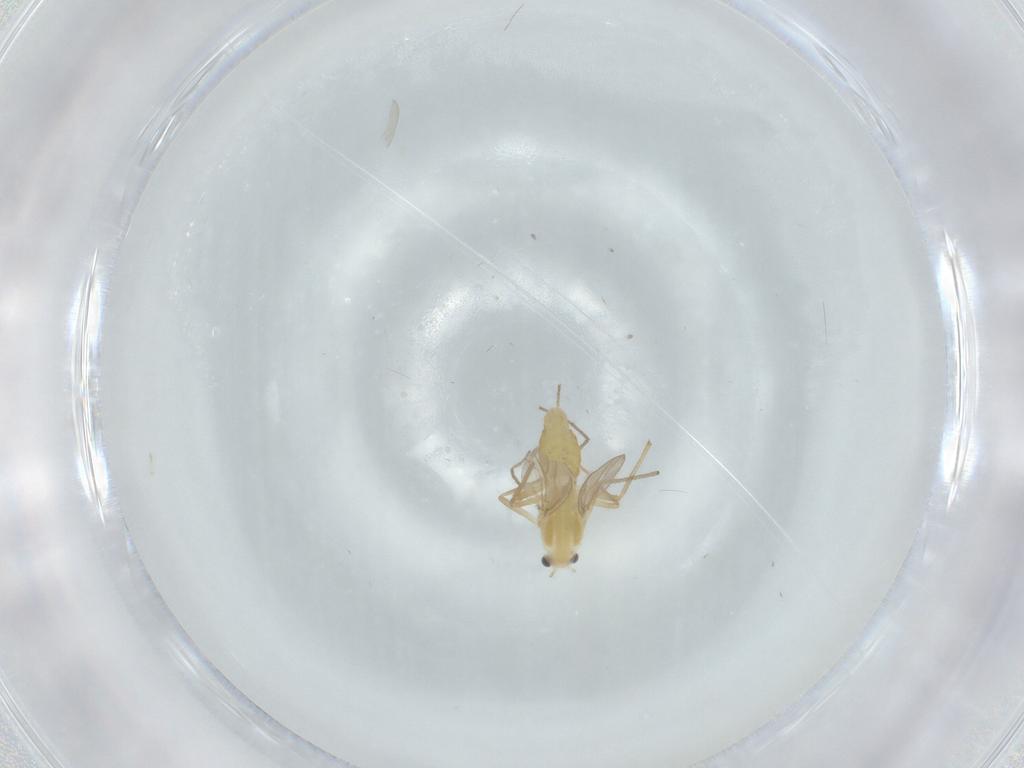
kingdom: Animalia
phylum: Arthropoda
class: Insecta
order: Diptera
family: Chironomidae
